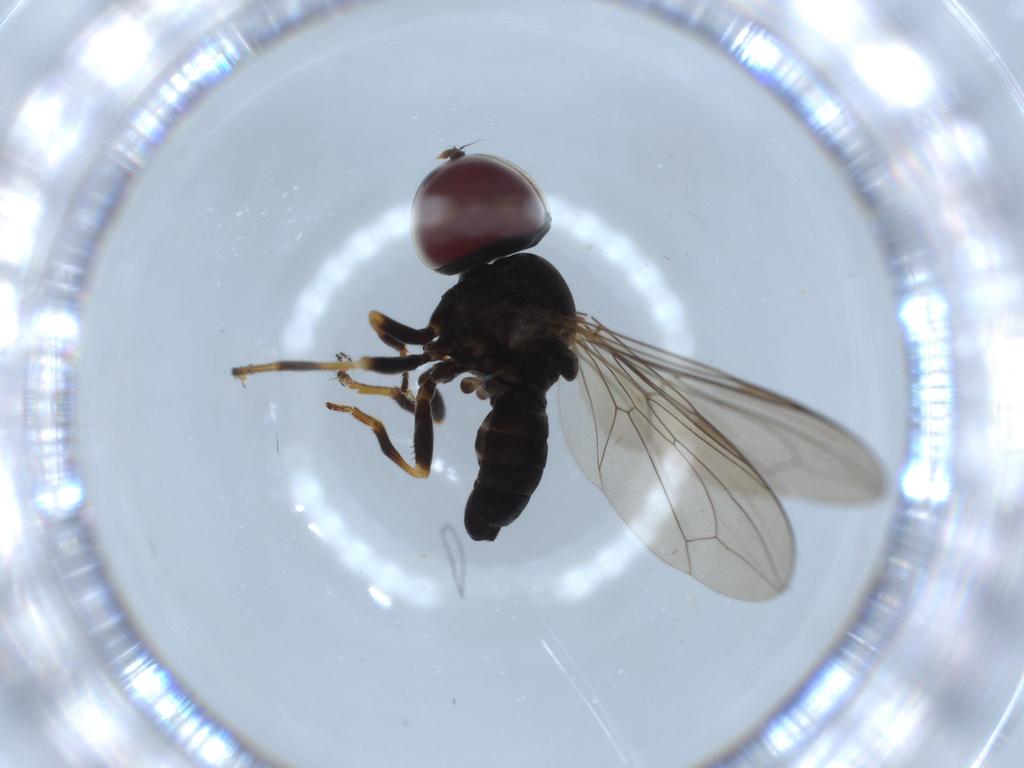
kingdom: Animalia
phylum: Arthropoda
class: Insecta
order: Diptera
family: Pipunculidae
